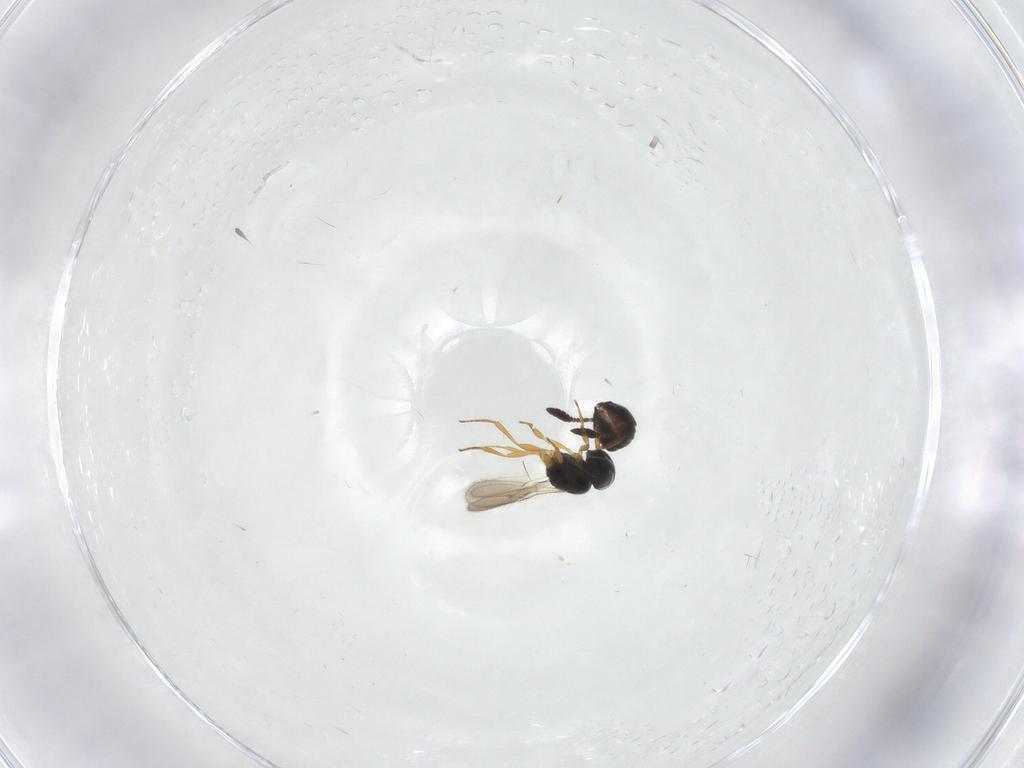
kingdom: Animalia
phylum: Arthropoda
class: Insecta
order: Hymenoptera
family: Scelionidae
